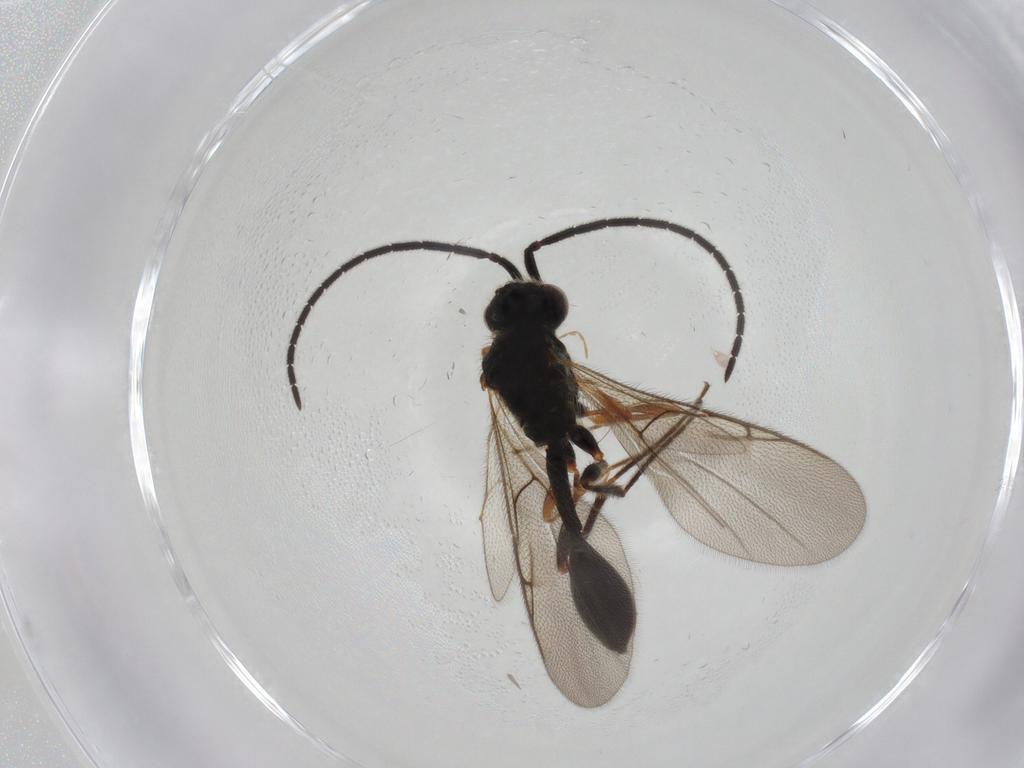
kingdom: Animalia
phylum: Arthropoda
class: Insecta
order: Hymenoptera
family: Diapriidae
